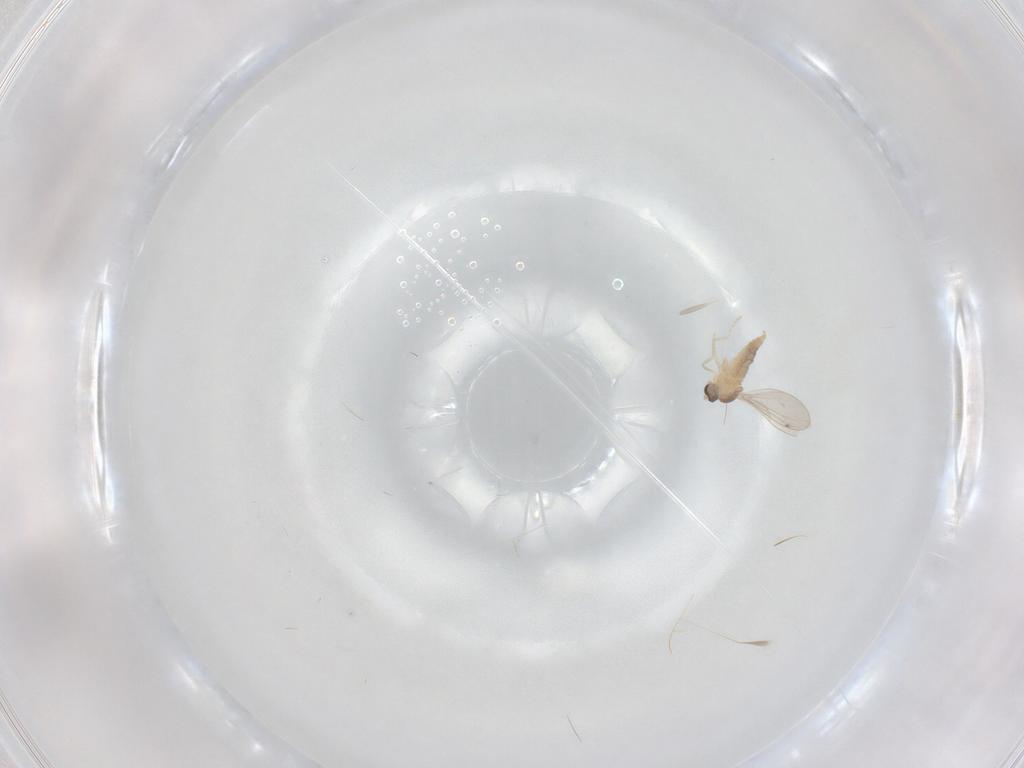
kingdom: Animalia
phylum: Arthropoda
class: Insecta
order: Diptera
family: Cecidomyiidae
